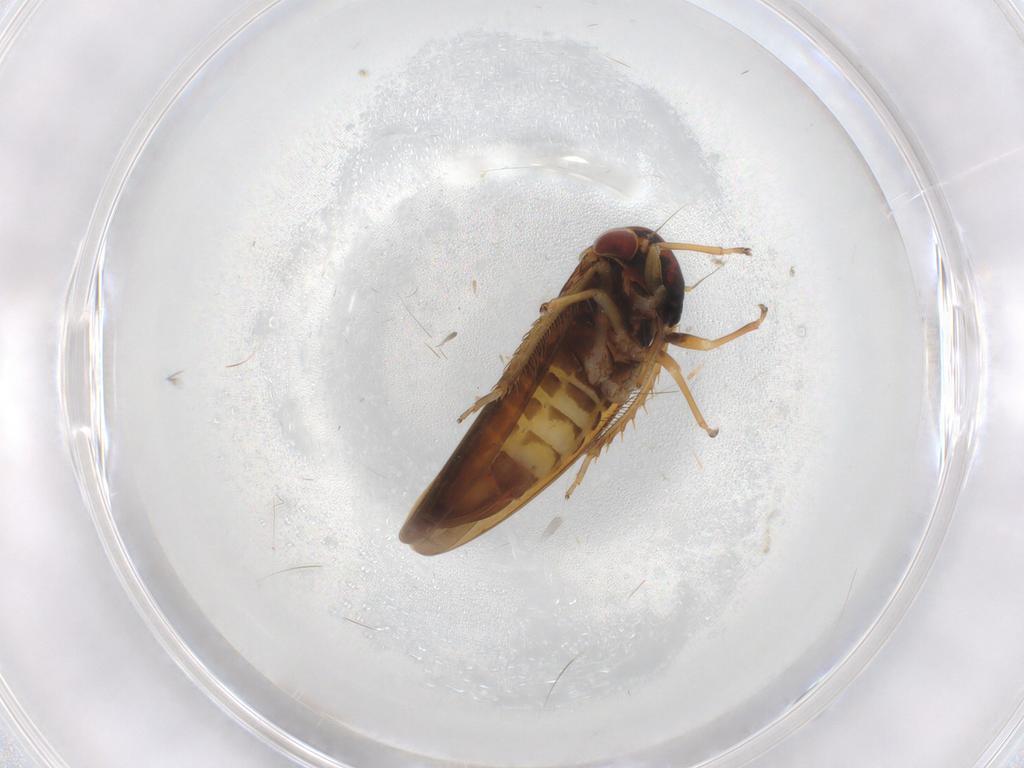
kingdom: Animalia
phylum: Arthropoda
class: Insecta
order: Hemiptera
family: Cicadellidae
